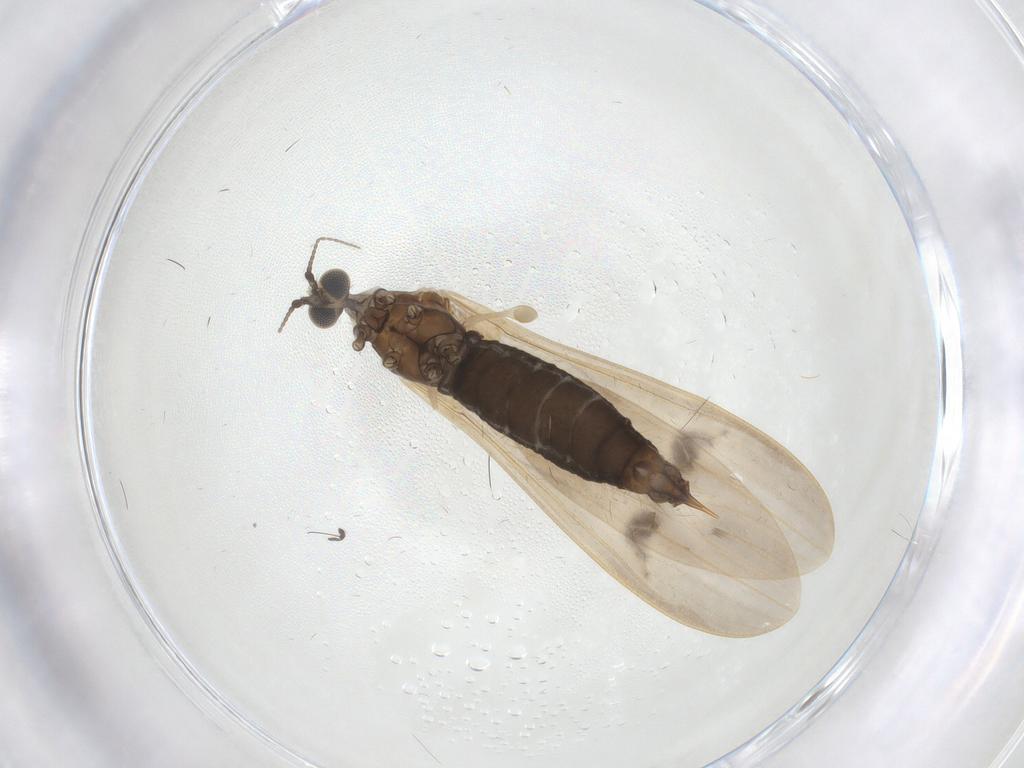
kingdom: Animalia
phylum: Arthropoda
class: Insecta
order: Diptera
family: Limoniidae
